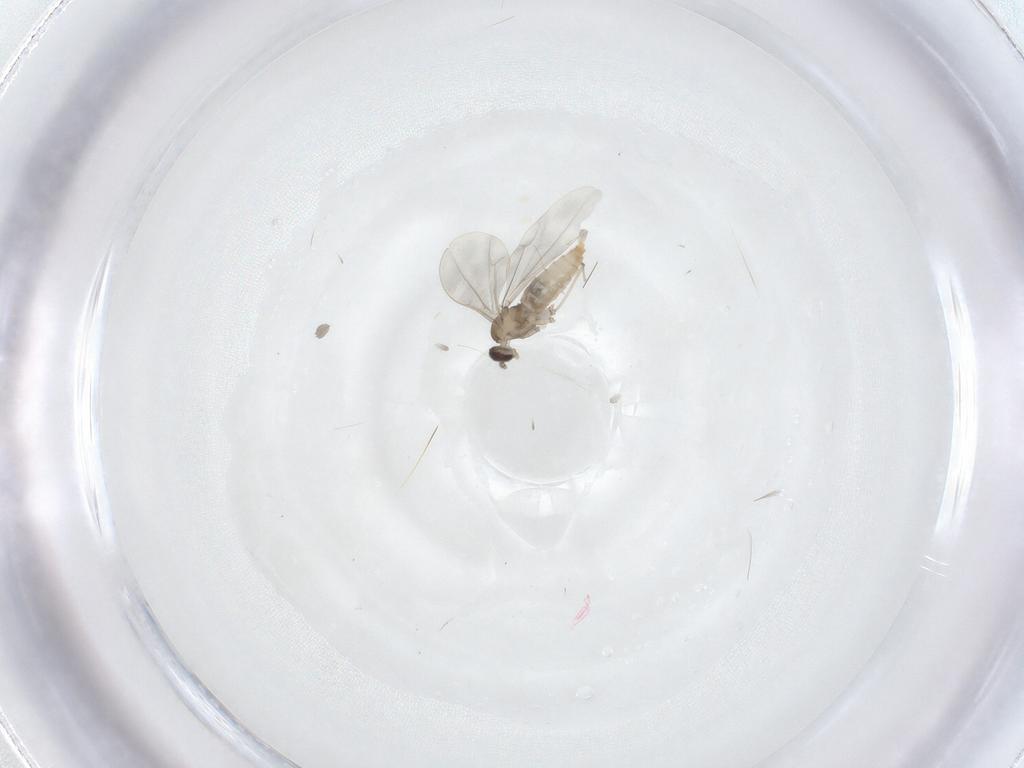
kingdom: Animalia
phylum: Arthropoda
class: Insecta
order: Diptera
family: Cecidomyiidae
